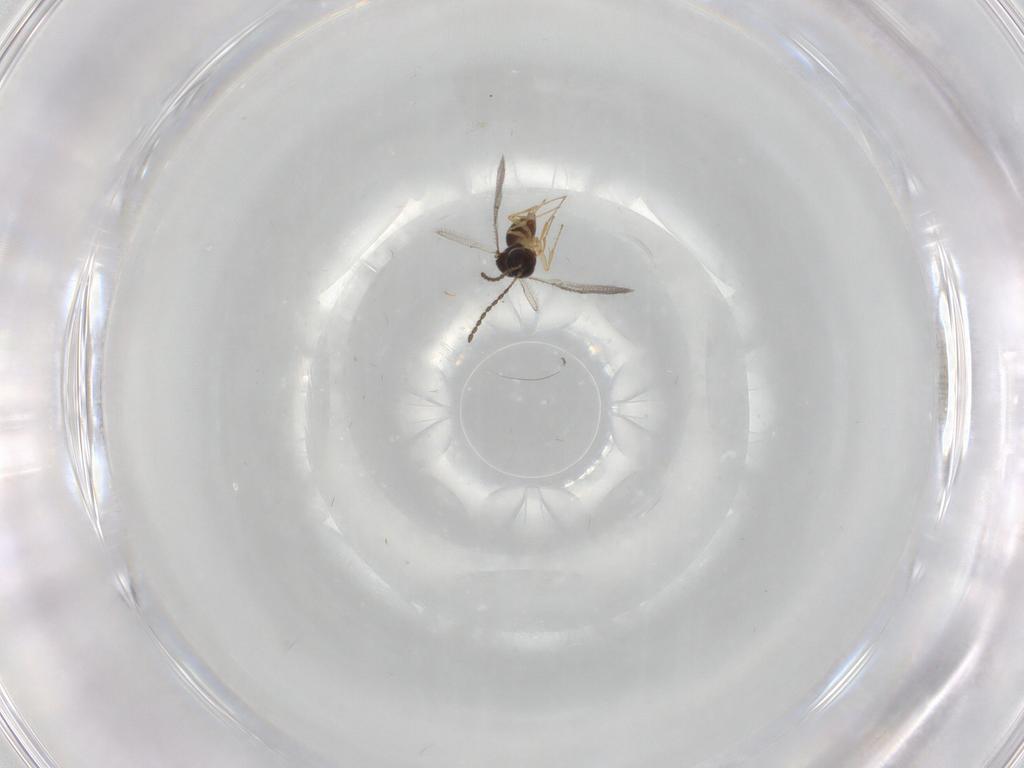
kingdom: Animalia
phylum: Arthropoda
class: Insecta
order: Hymenoptera
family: Figitidae
